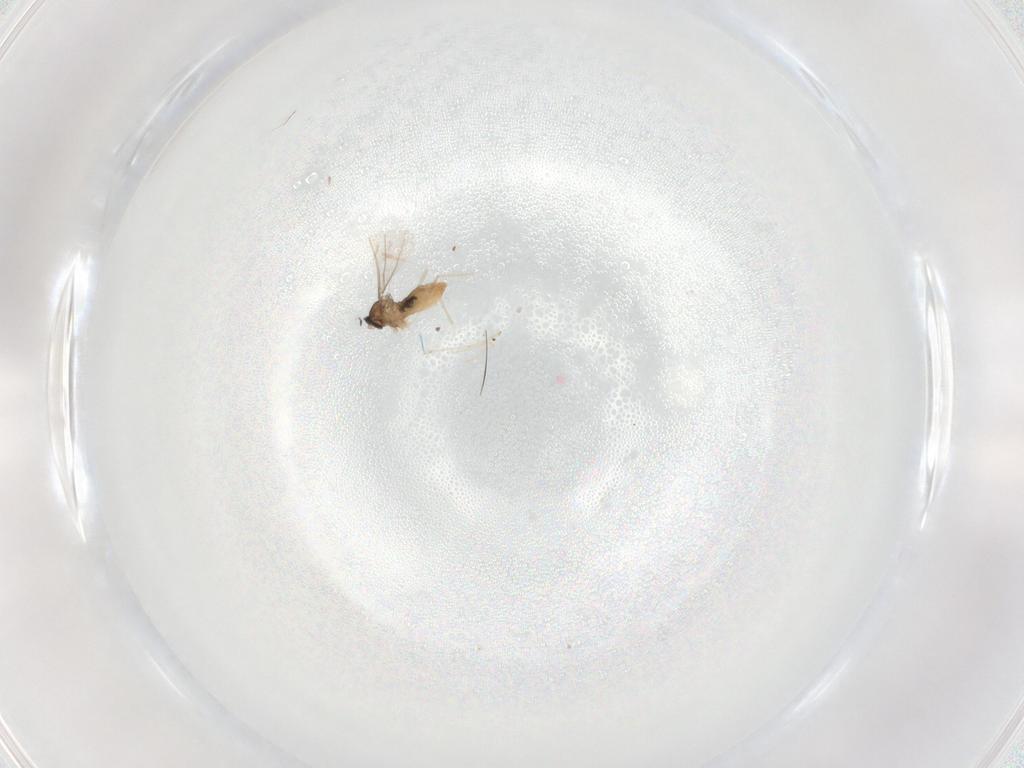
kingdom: Animalia
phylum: Arthropoda
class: Insecta
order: Diptera
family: Cecidomyiidae
